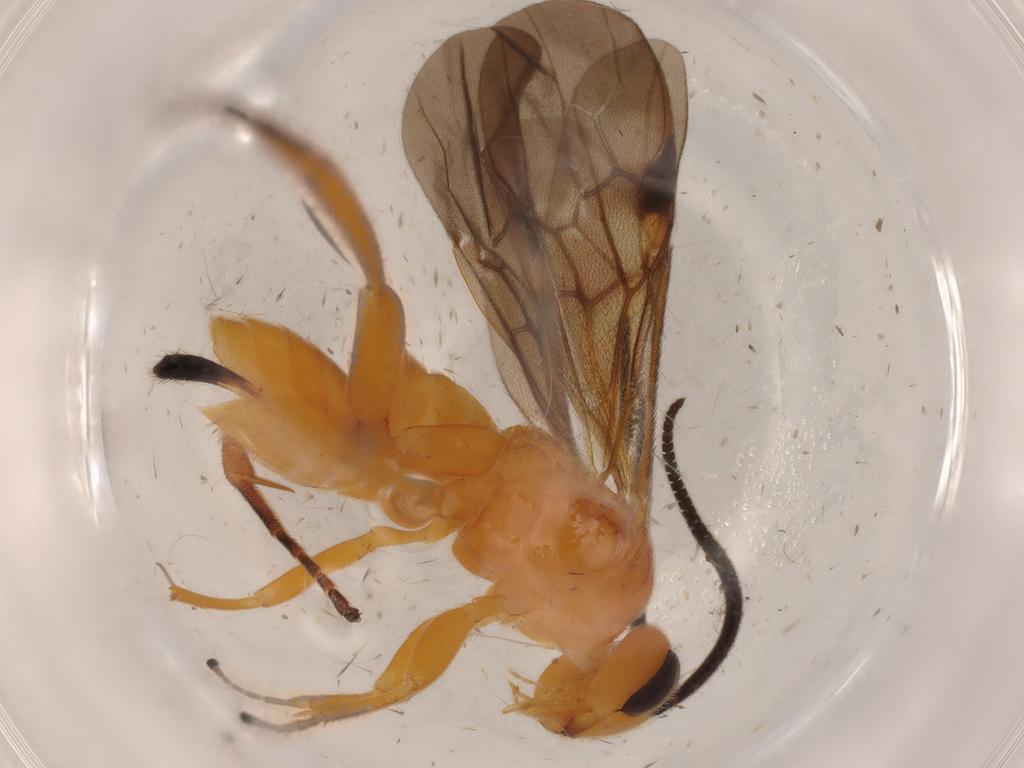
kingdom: Animalia
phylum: Arthropoda
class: Insecta
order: Hymenoptera
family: Braconidae
